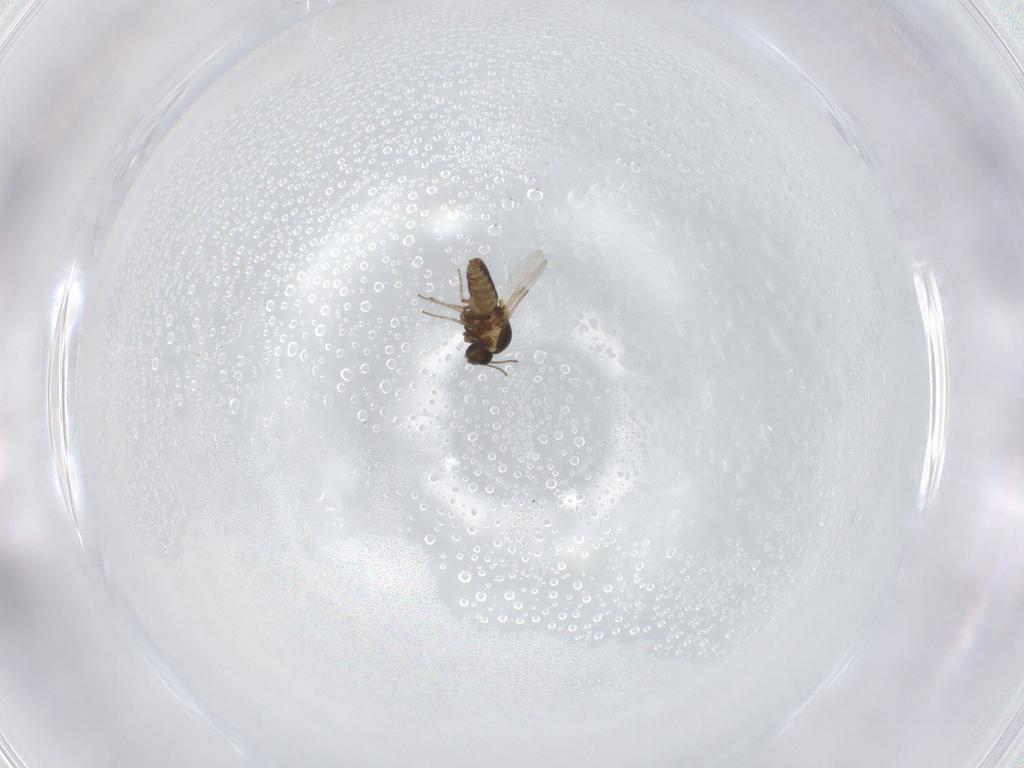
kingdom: Animalia
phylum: Arthropoda
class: Insecta
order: Diptera
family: Ceratopogonidae
